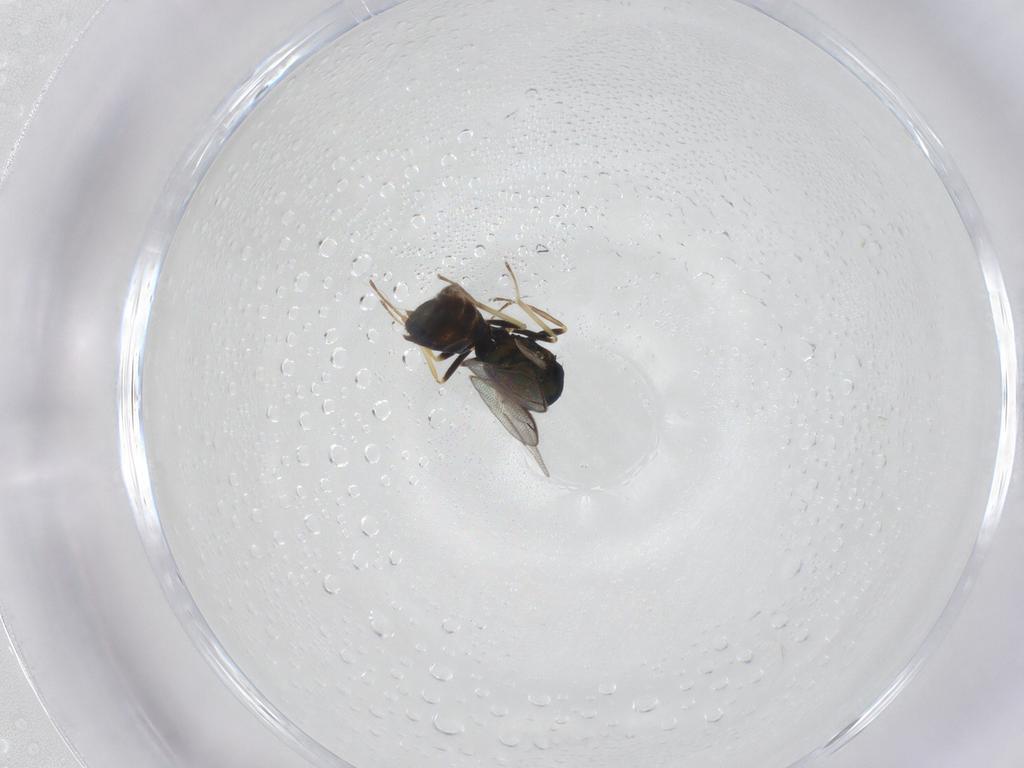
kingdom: Animalia
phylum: Arthropoda
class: Insecta
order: Hymenoptera
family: Eulophidae
